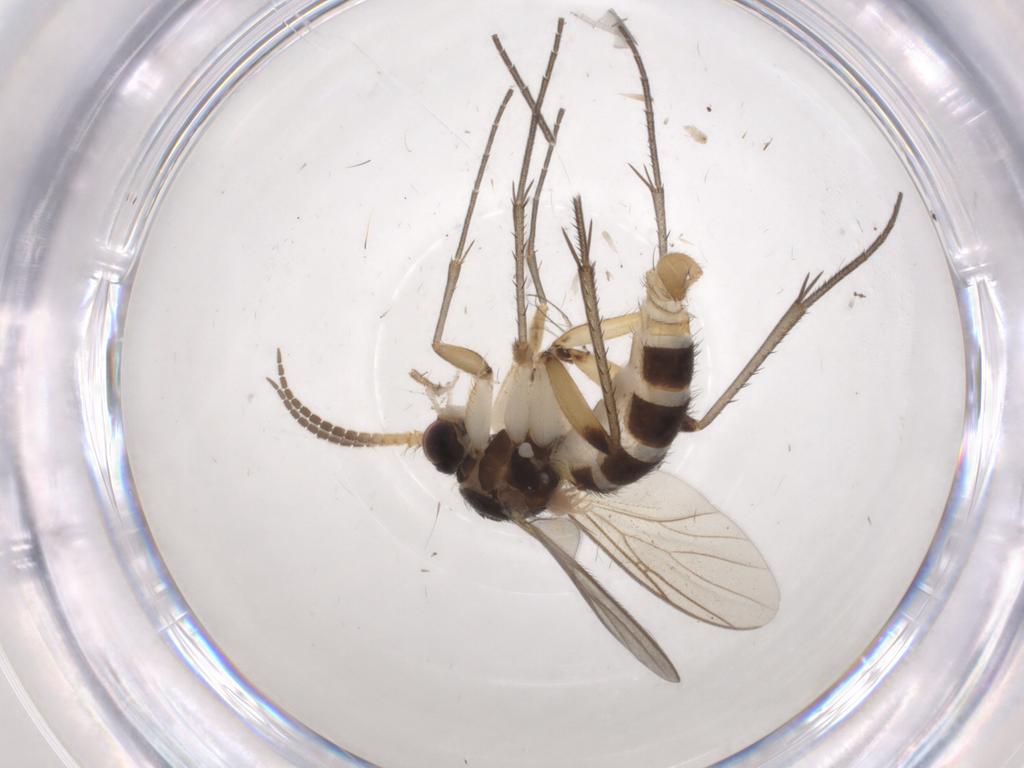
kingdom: Animalia
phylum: Arthropoda
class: Insecta
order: Diptera
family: Mycetophilidae
